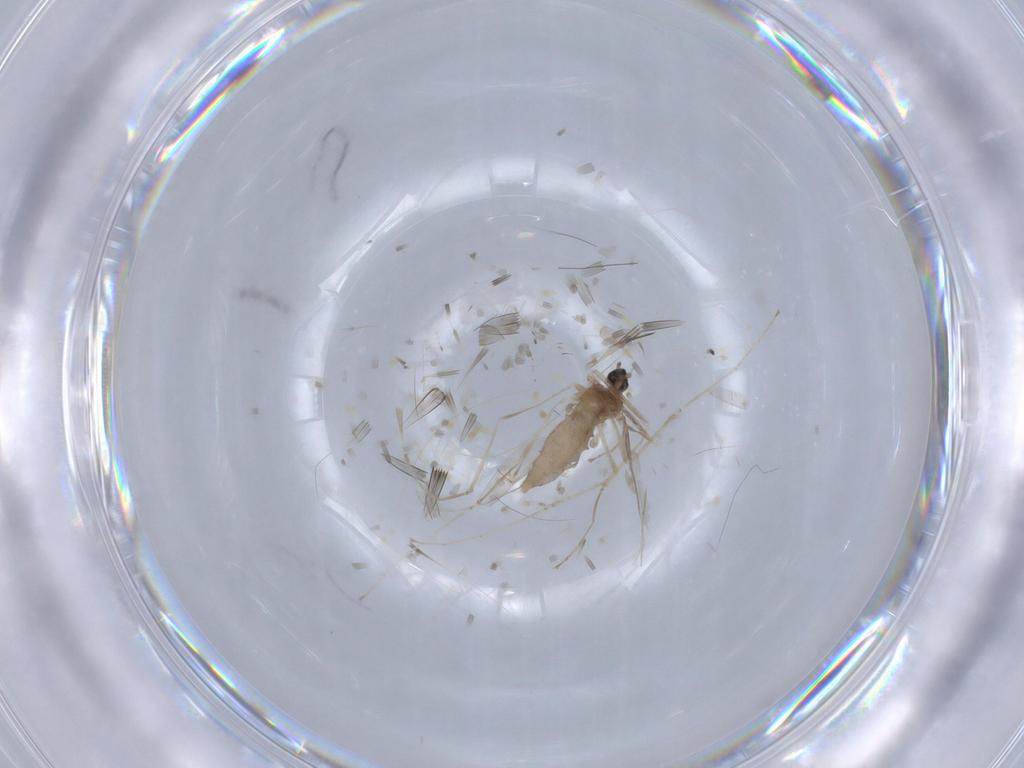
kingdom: Animalia
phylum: Arthropoda
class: Insecta
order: Diptera
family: Cecidomyiidae
